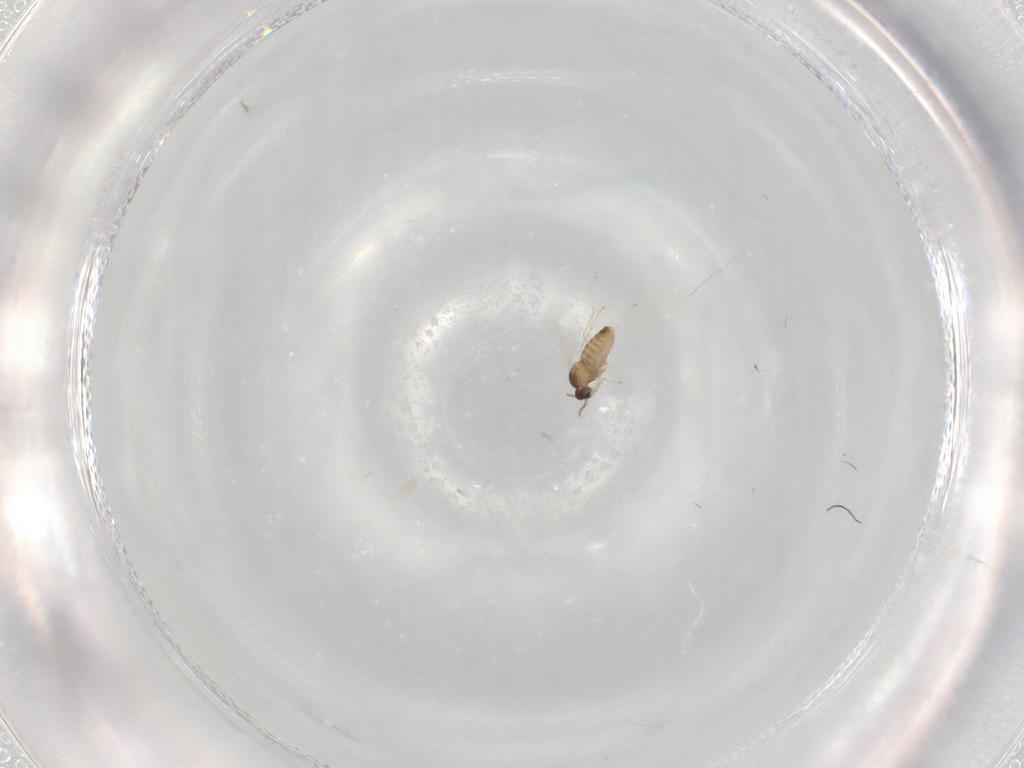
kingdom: Animalia
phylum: Arthropoda
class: Insecta
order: Diptera
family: Cecidomyiidae
